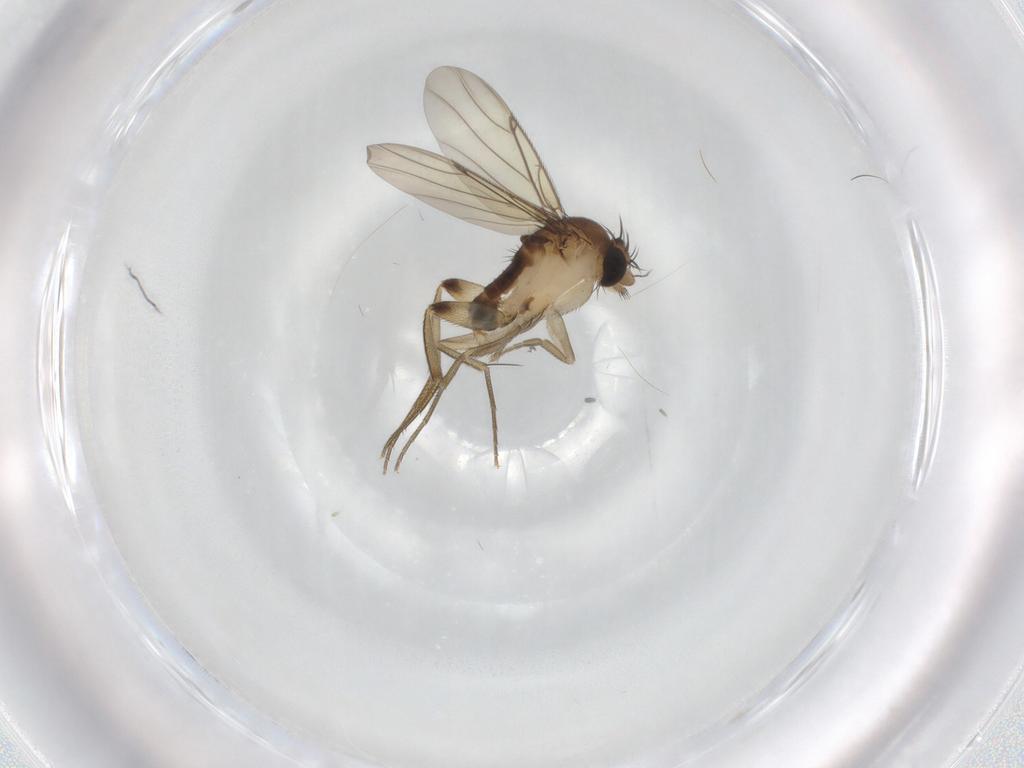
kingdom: Animalia
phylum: Arthropoda
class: Insecta
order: Diptera
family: Phoridae
